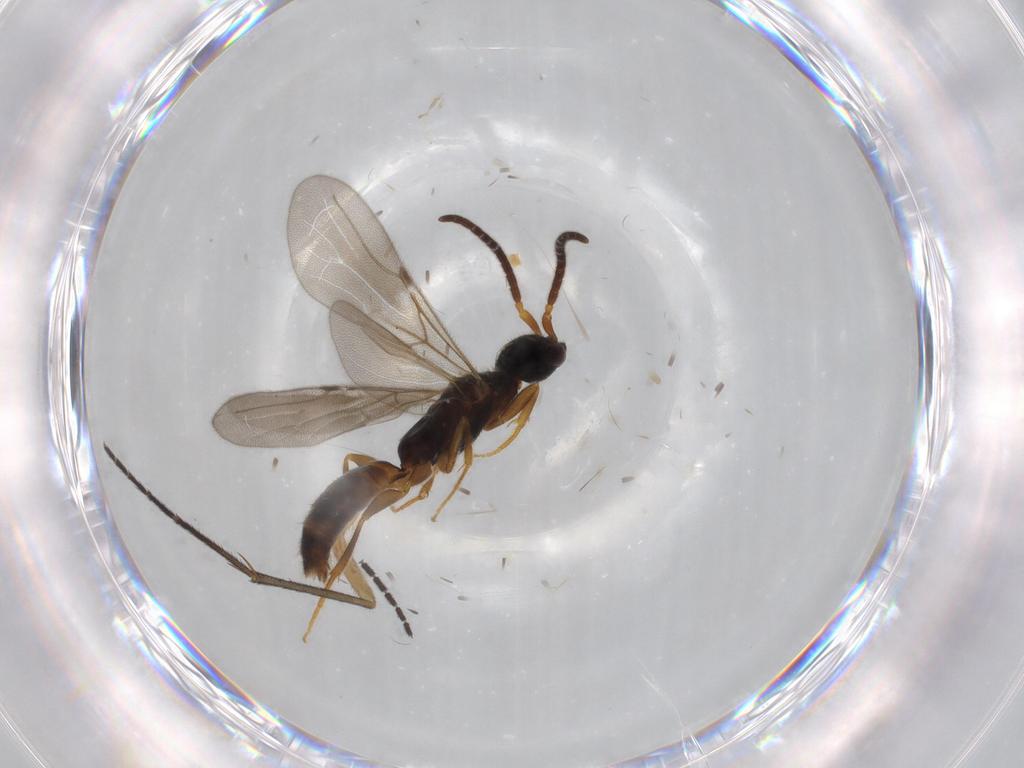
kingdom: Animalia
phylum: Arthropoda
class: Insecta
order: Hymenoptera
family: Bethylidae
